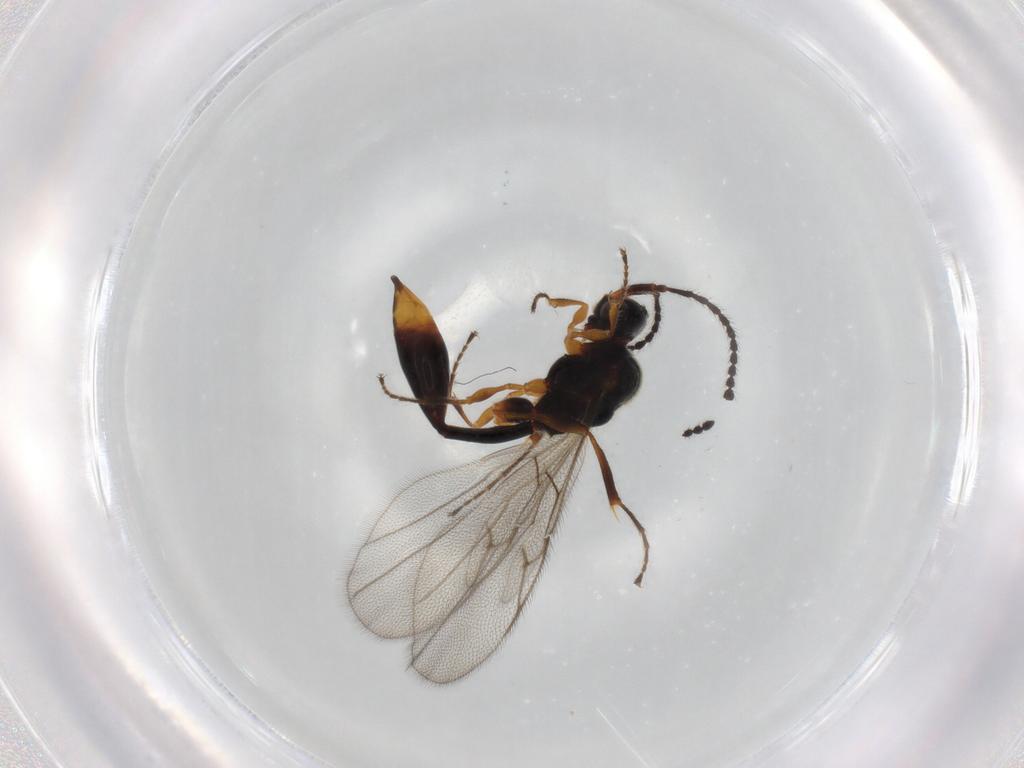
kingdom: Animalia
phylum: Arthropoda
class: Insecta
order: Hymenoptera
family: Diapriidae
